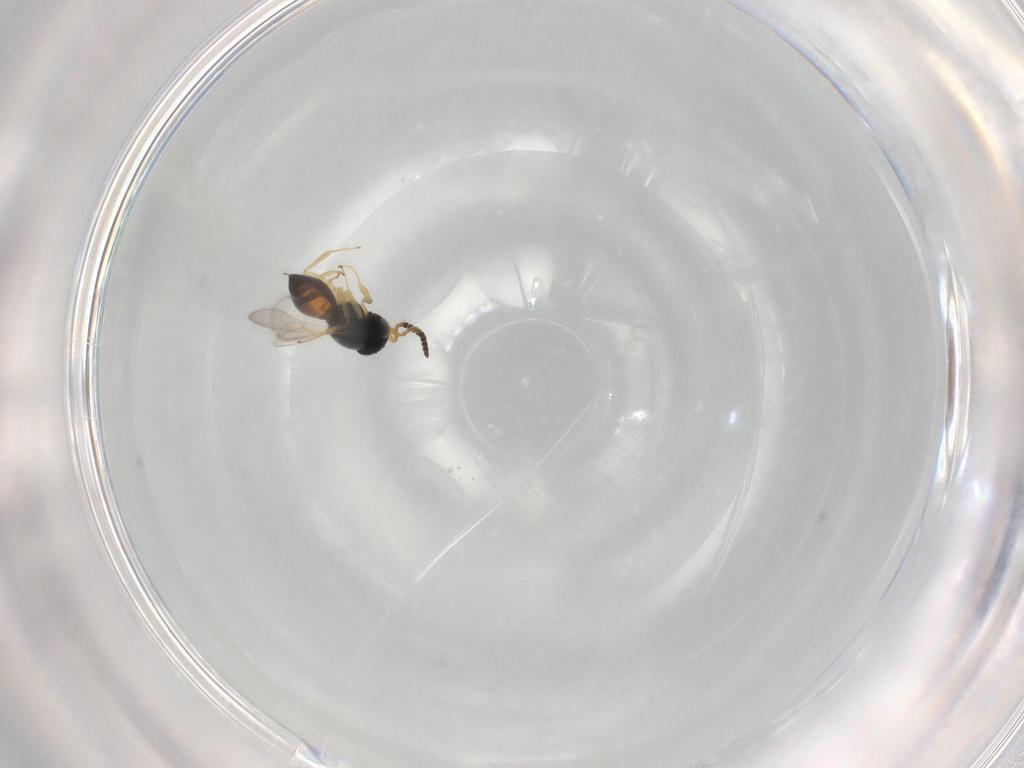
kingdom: Animalia
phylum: Arthropoda
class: Insecta
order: Hymenoptera
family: Scelionidae
